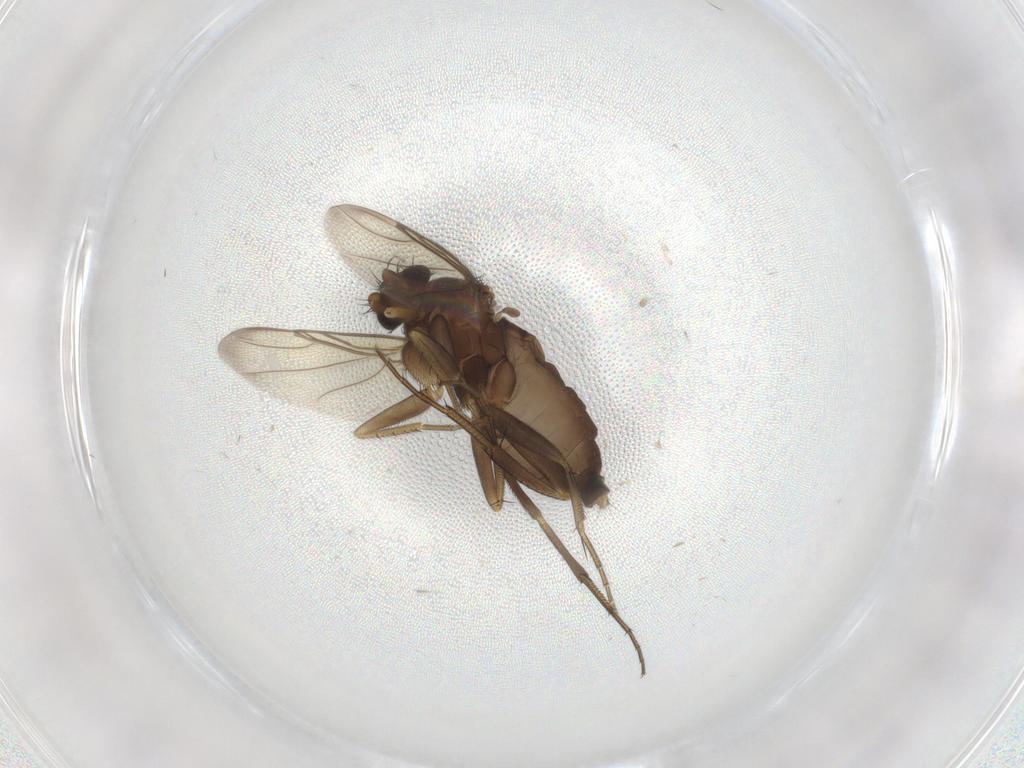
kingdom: Animalia
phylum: Arthropoda
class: Insecta
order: Diptera
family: Phoridae
